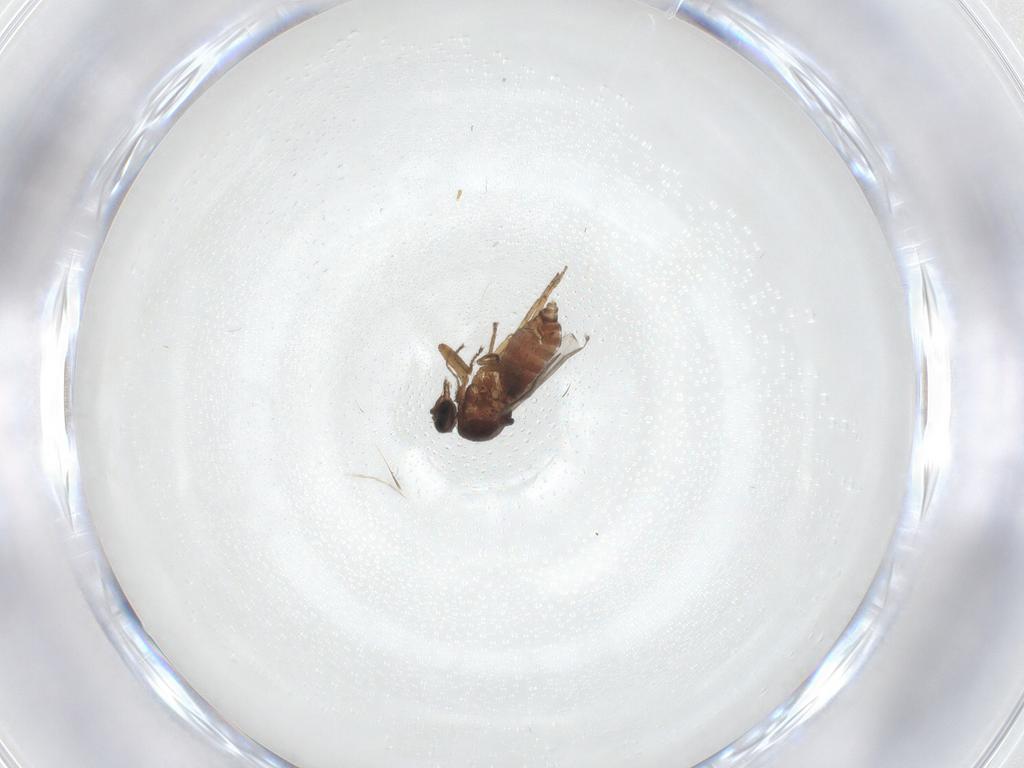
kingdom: Animalia
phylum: Arthropoda
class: Insecta
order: Diptera
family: Ceratopogonidae
